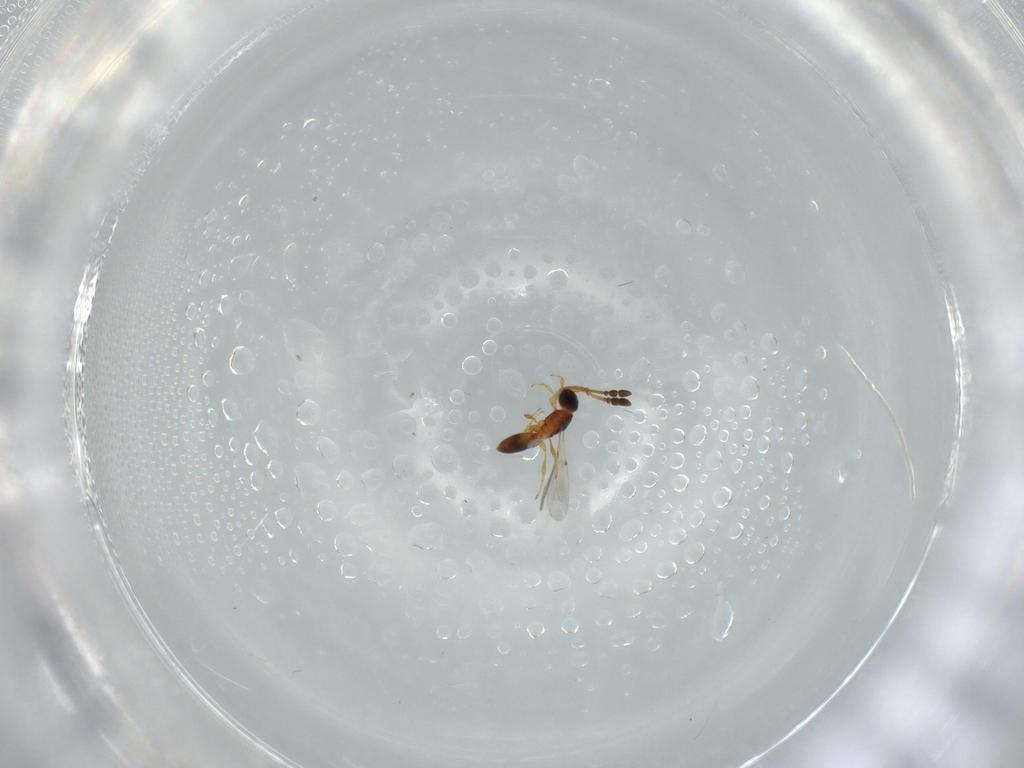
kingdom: Animalia
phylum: Arthropoda
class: Insecta
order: Hymenoptera
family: Diapriidae
